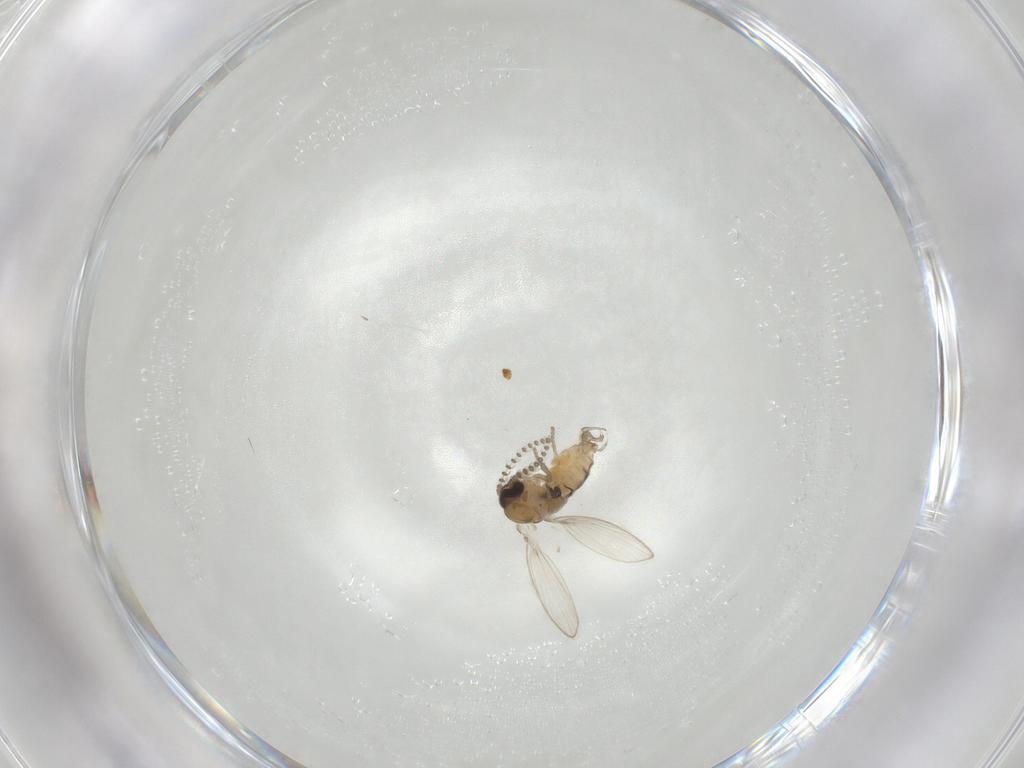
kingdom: Animalia
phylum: Arthropoda
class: Insecta
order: Diptera
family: Psychodidae
